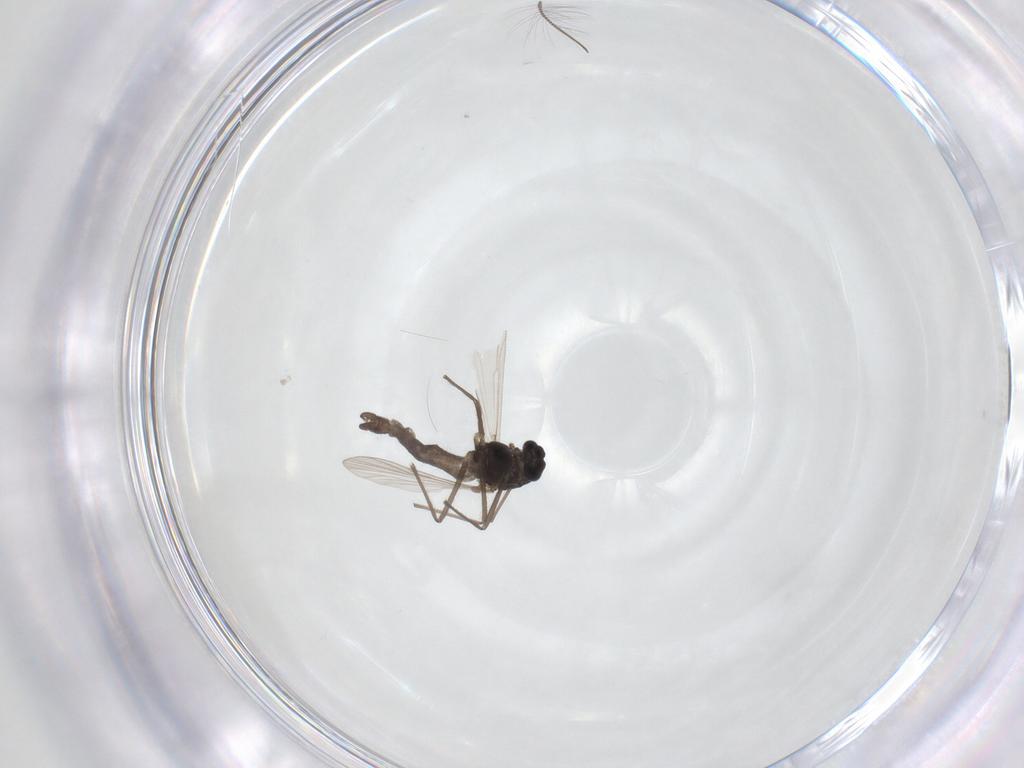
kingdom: Animalia
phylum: Arthropoda
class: Insecta
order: Diptera
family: Chironomidae
